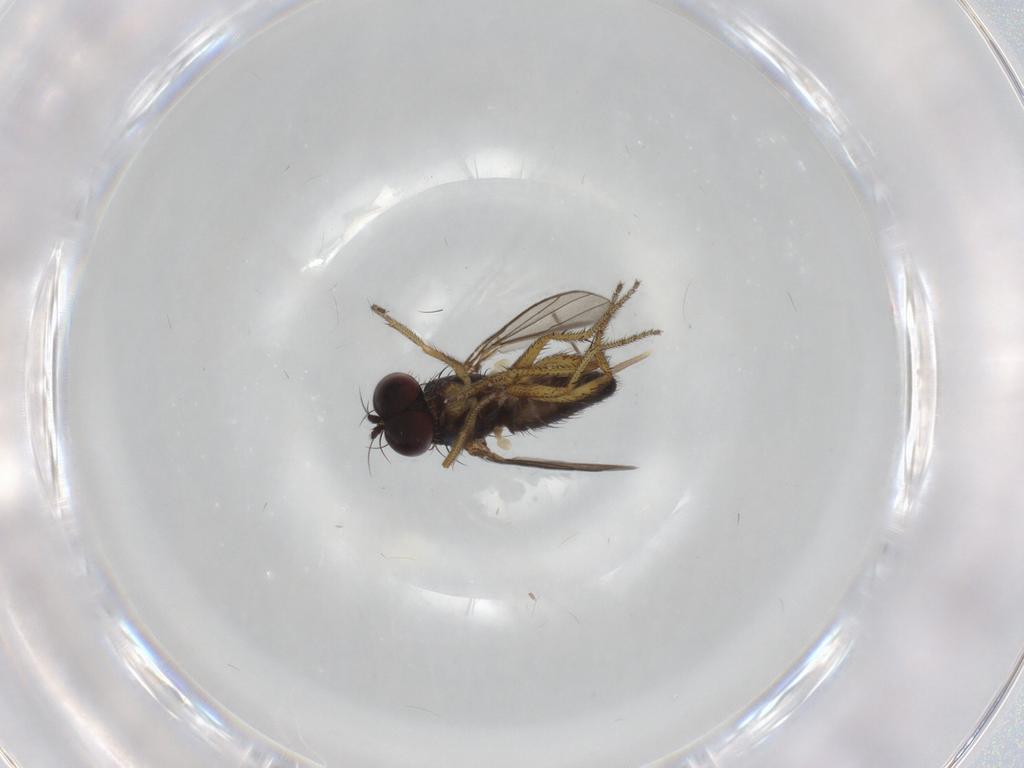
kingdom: Animalia
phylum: Arthropoda
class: Insecta
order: Diptera
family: Chironomidae
